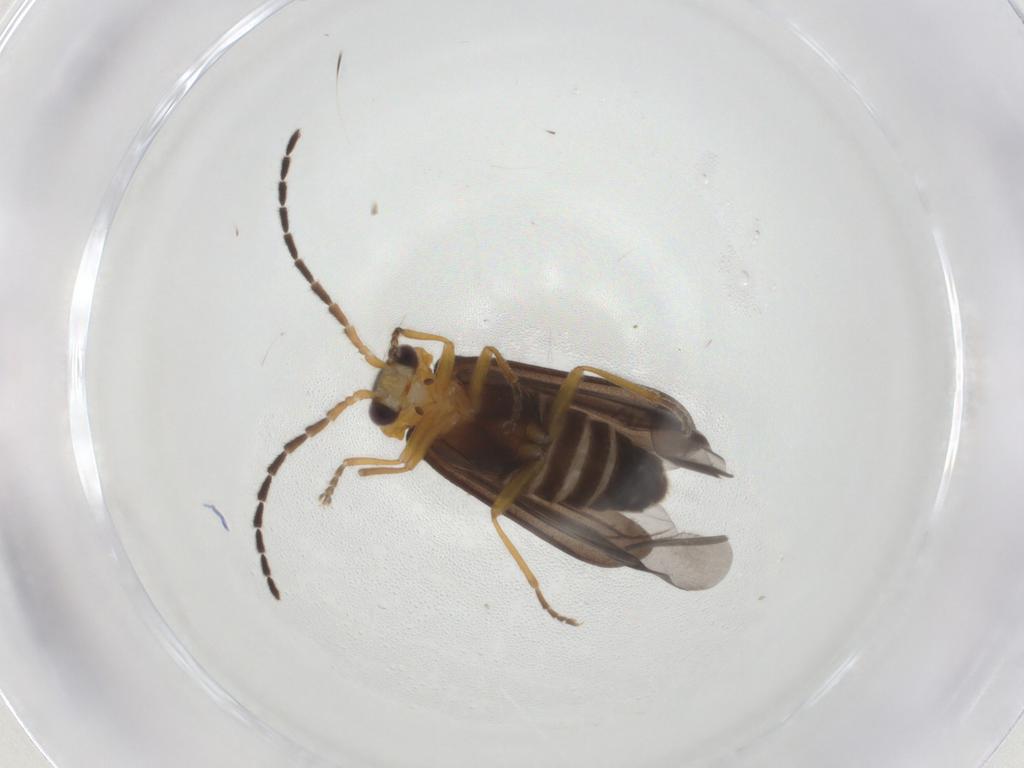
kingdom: Animalia
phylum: Arthropoda
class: Insecta
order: Coleoptera
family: Cantharidae
